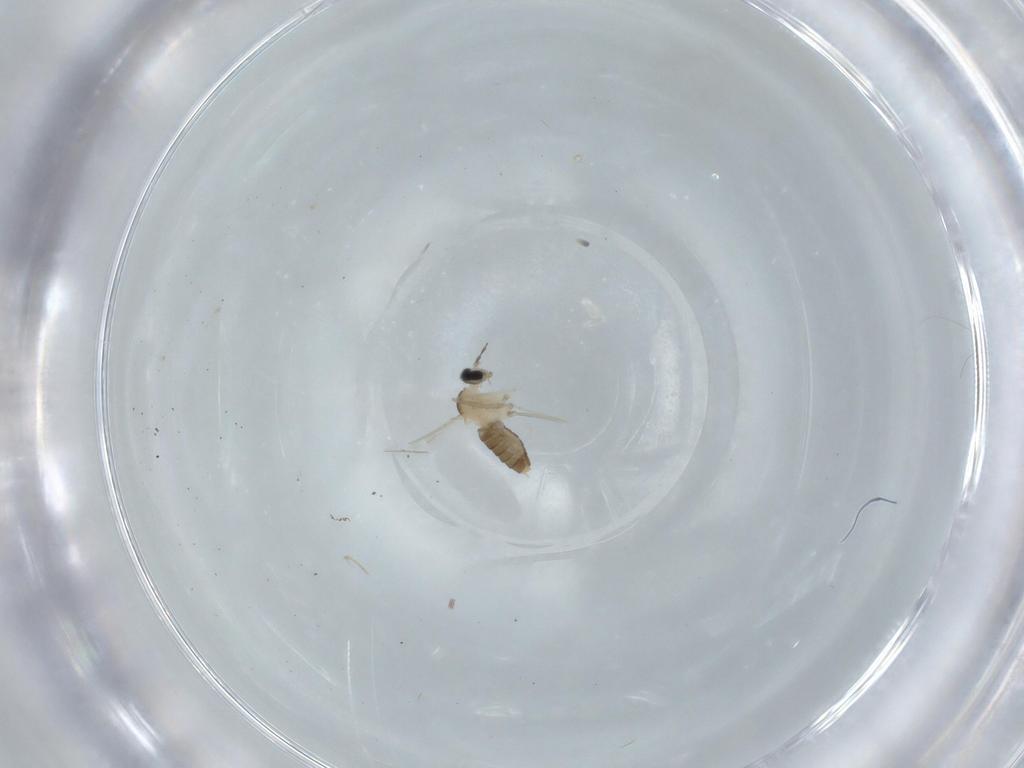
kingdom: Animalia
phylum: Arthropoda
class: Insecta
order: Diptera
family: Cecidomyiidae
